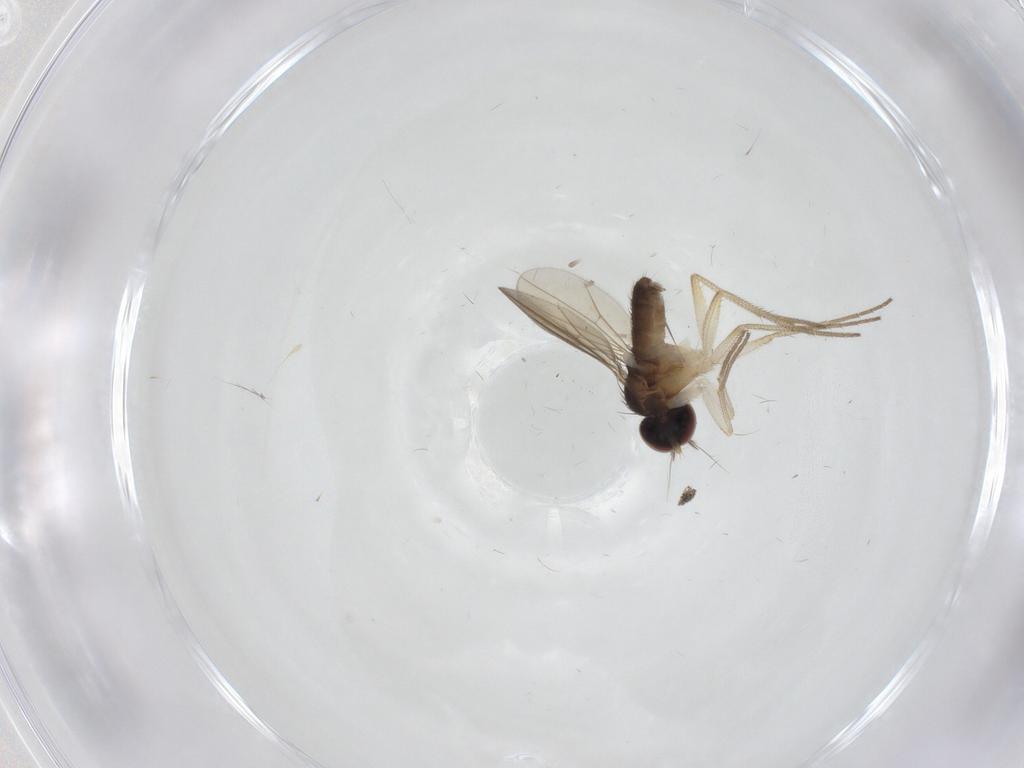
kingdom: Animalia
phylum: Arthropoda
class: Insecta
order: Diptera
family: Dolichopodidae
